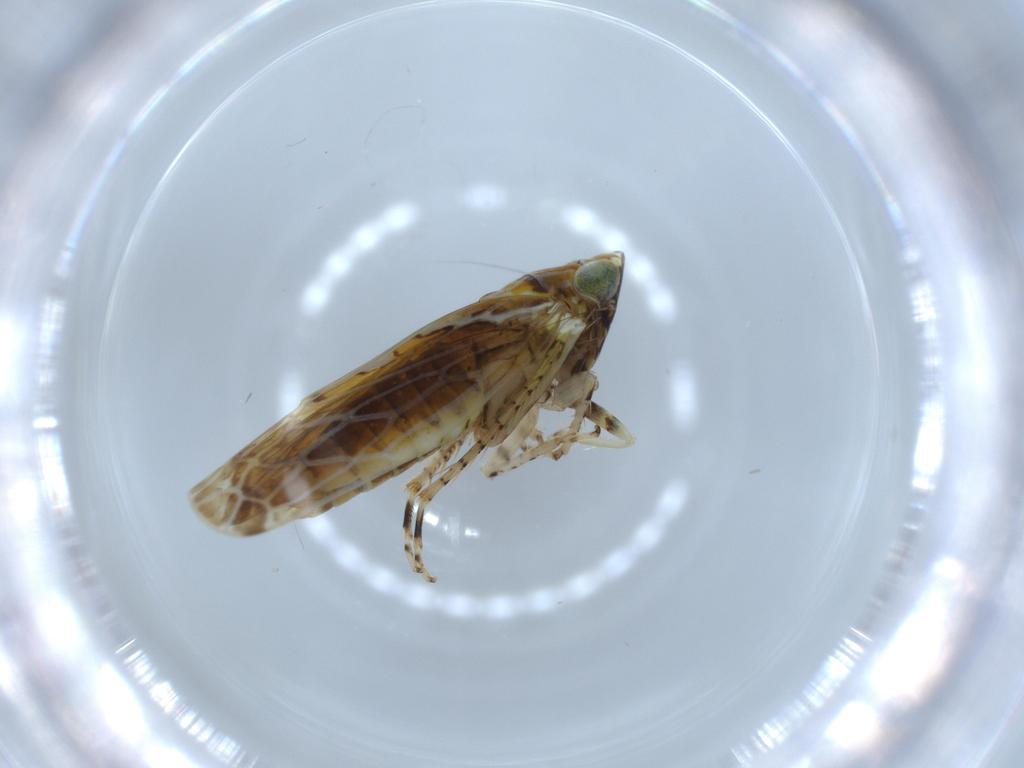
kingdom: Animalia
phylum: Arthropoda
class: Insecta
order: Hemiptera
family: Cicadellidae
